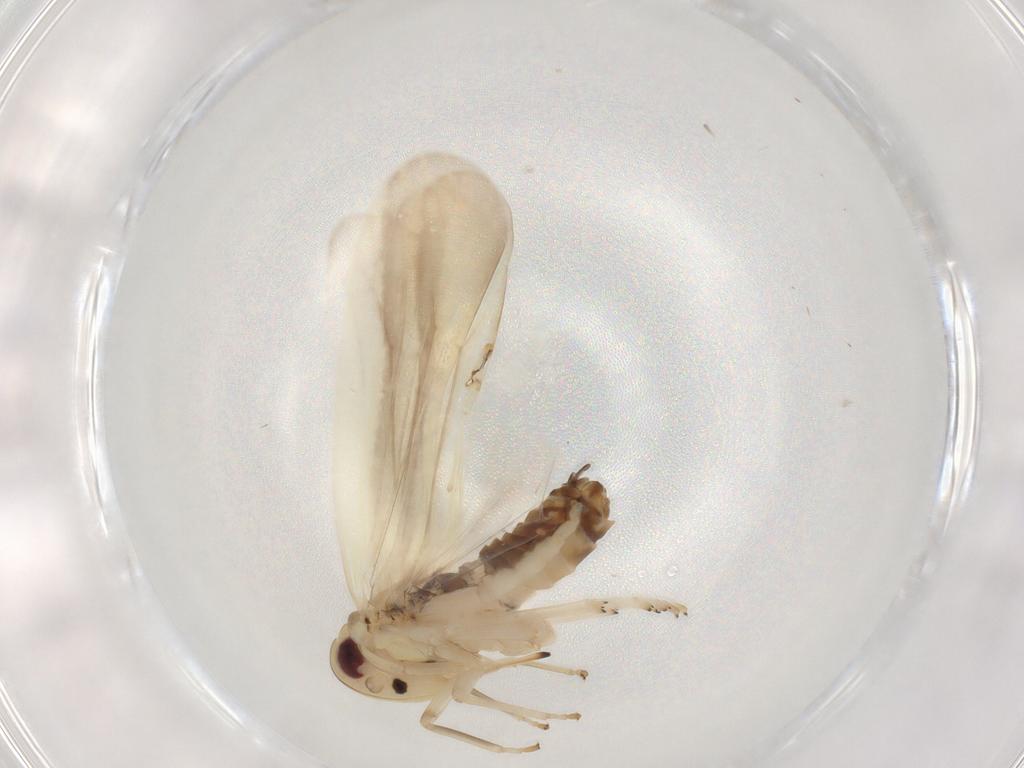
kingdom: Animalia
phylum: Arthropoda
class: Insecta
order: Hemiptera
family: Achilidae
